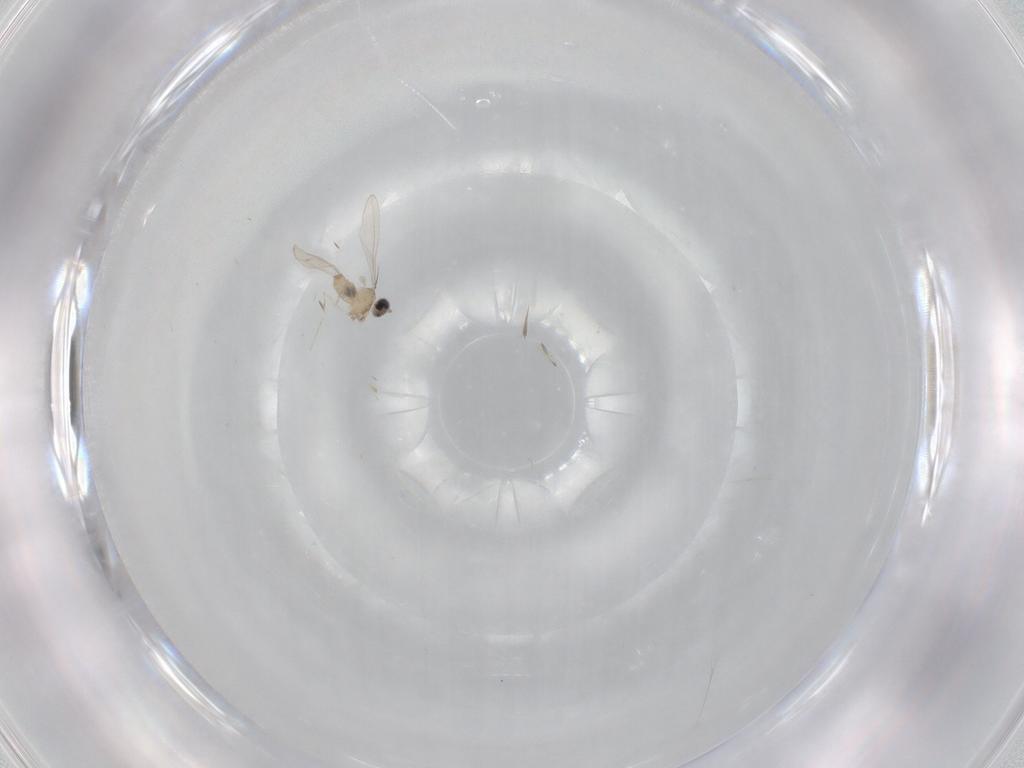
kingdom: Animalia
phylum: Arthropoda
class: Insecta
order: Diptera
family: Cecidomyiidae
